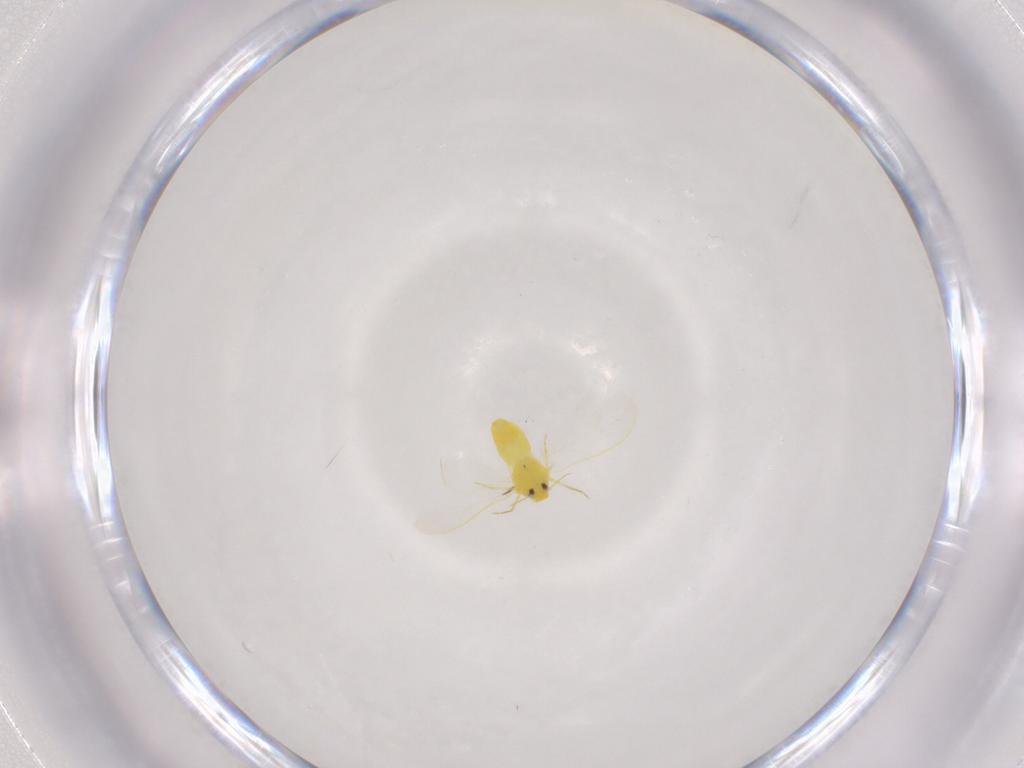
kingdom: Animalia
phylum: Arthropoda
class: Insecta
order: Hemiptera
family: Aleyrodidae
